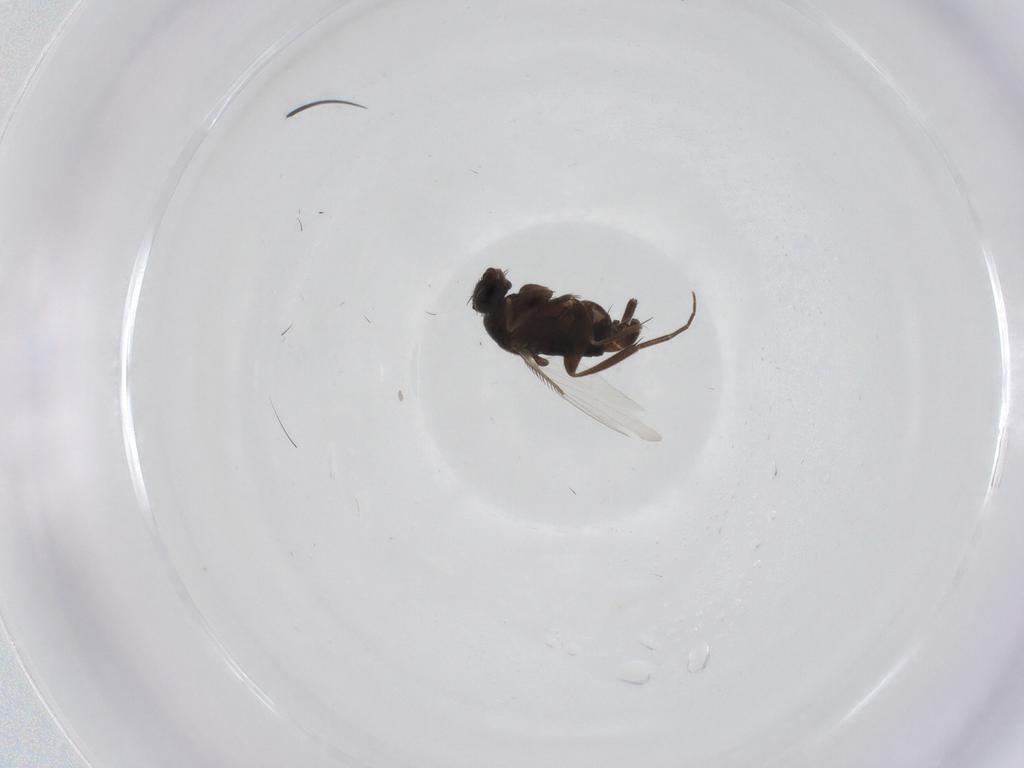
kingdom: Animalia
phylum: Arthropoda
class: Insecta
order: Diptera
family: Phoridae
